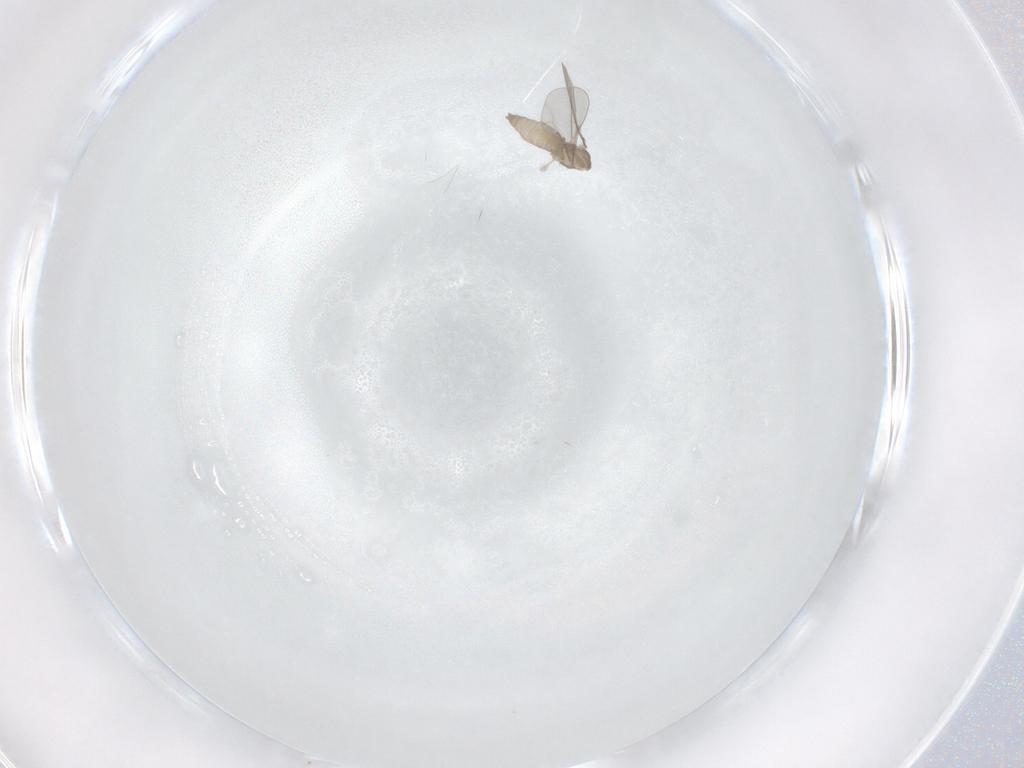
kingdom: Animalia
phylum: Arthropoda
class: Insecta
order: Diptera
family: Cecidomyiidae
